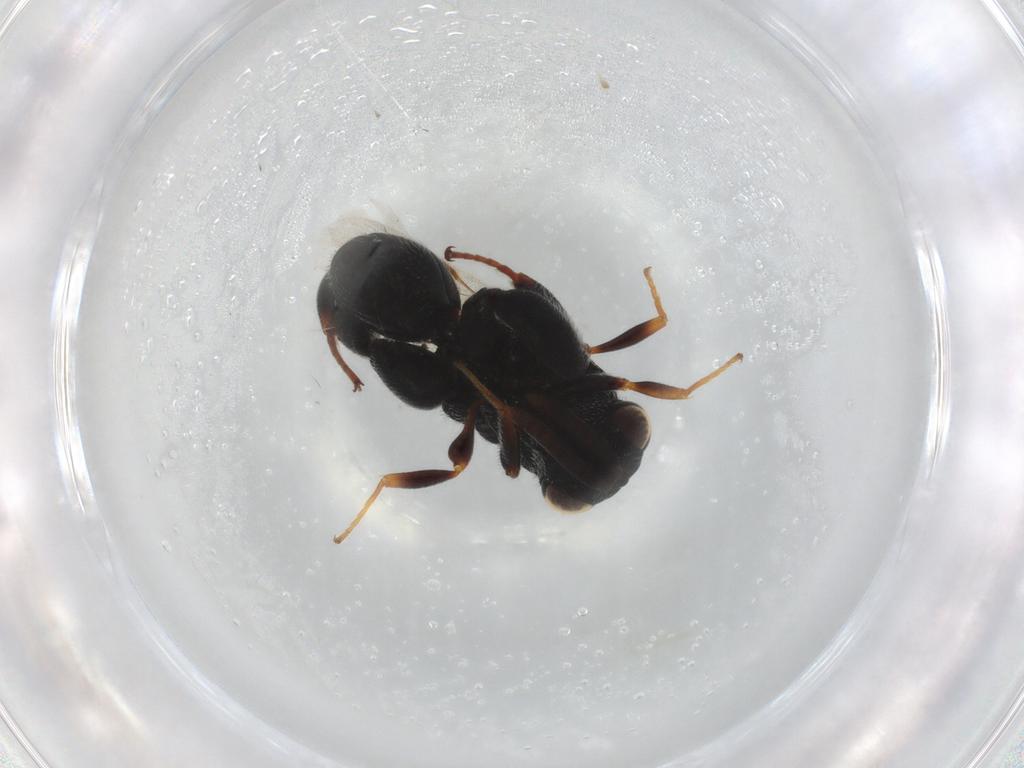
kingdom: Animalia
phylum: Arthropoda
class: Insecta
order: Hymenoptera
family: Chalcididae
